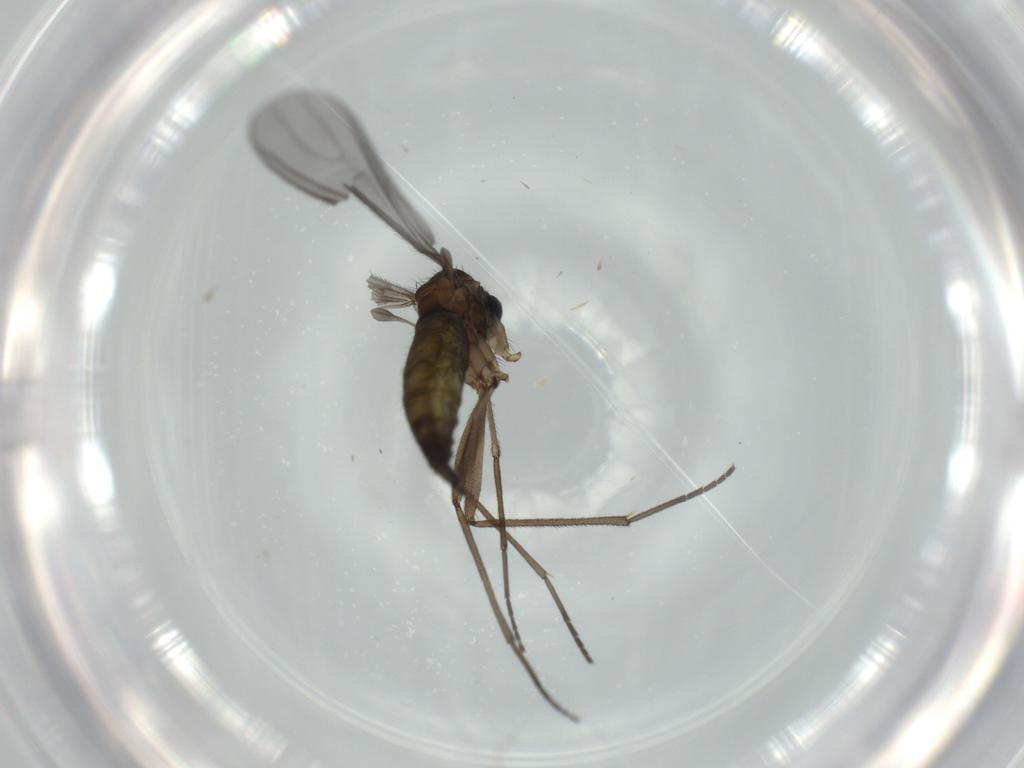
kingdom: Animalia
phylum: Arthropoda
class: Insecta
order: Diptera
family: Sciaridae
